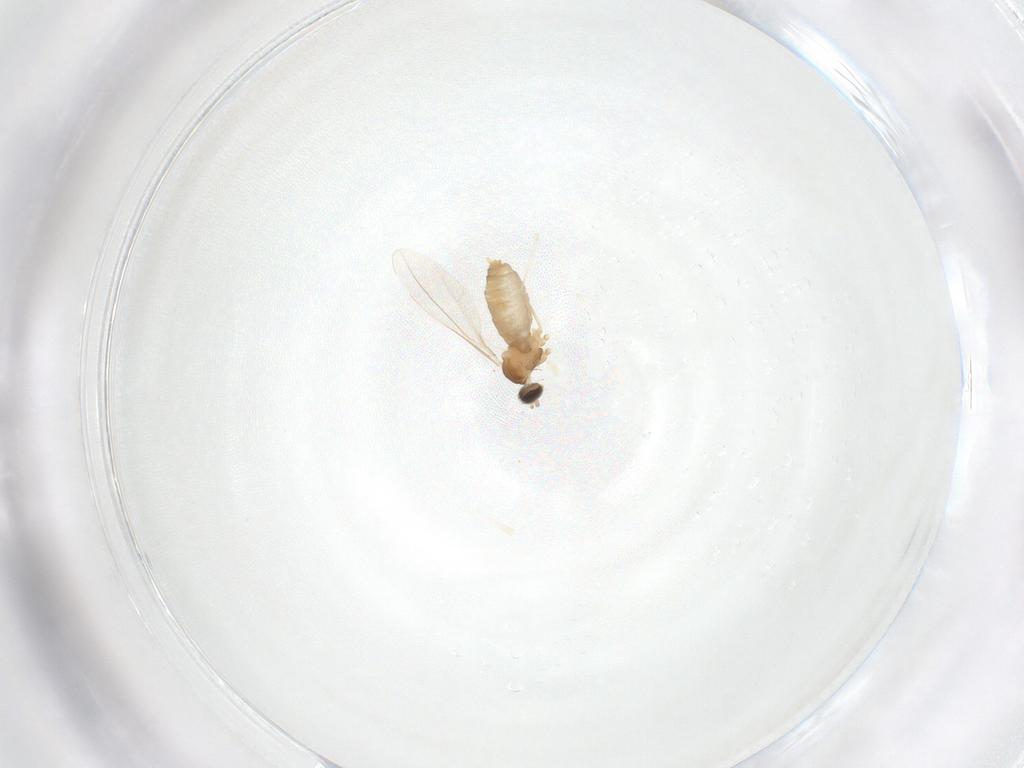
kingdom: Animalia
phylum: Arthropoda
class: Insecta
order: Diptera
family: Cecidomyiidae
